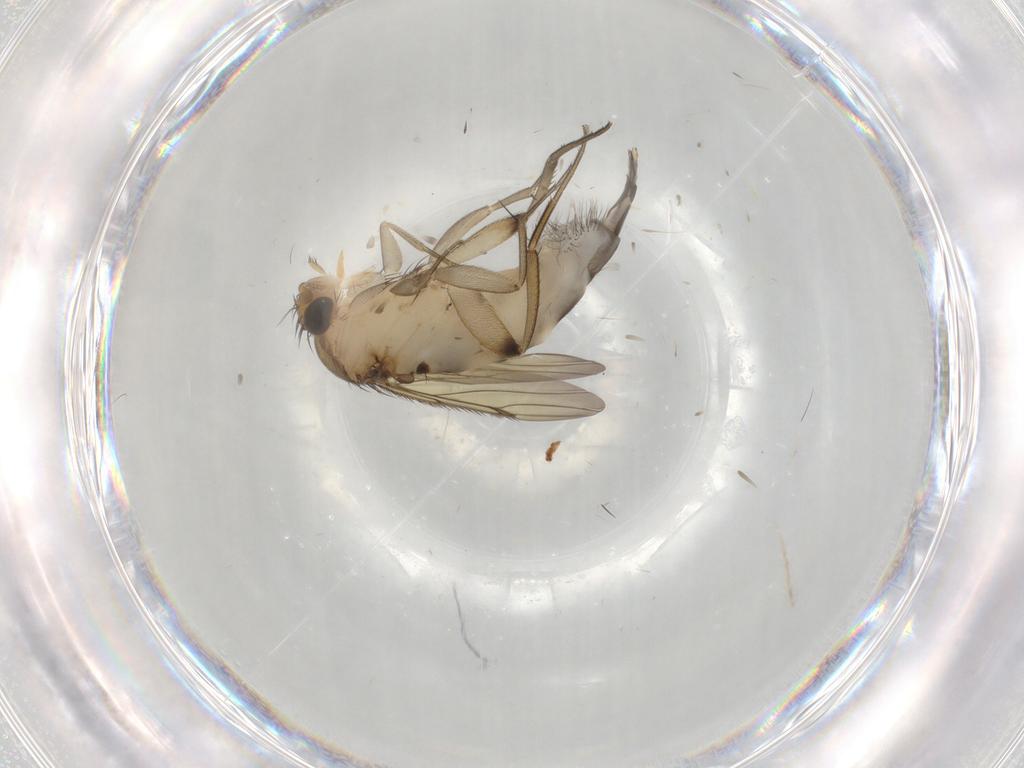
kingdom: Animalia
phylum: Arthropoda
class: Insecta
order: Diptera
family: Phoridae
